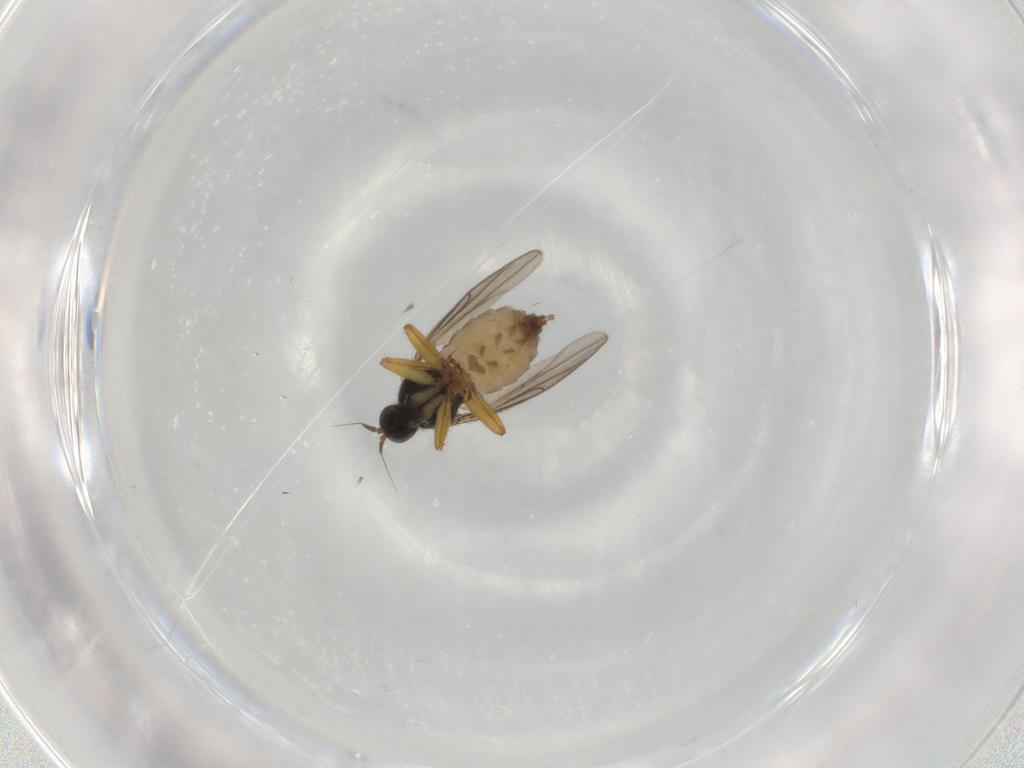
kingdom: Animalia
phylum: Arthropoda
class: Insecta
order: Diptera
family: Hybotidae
